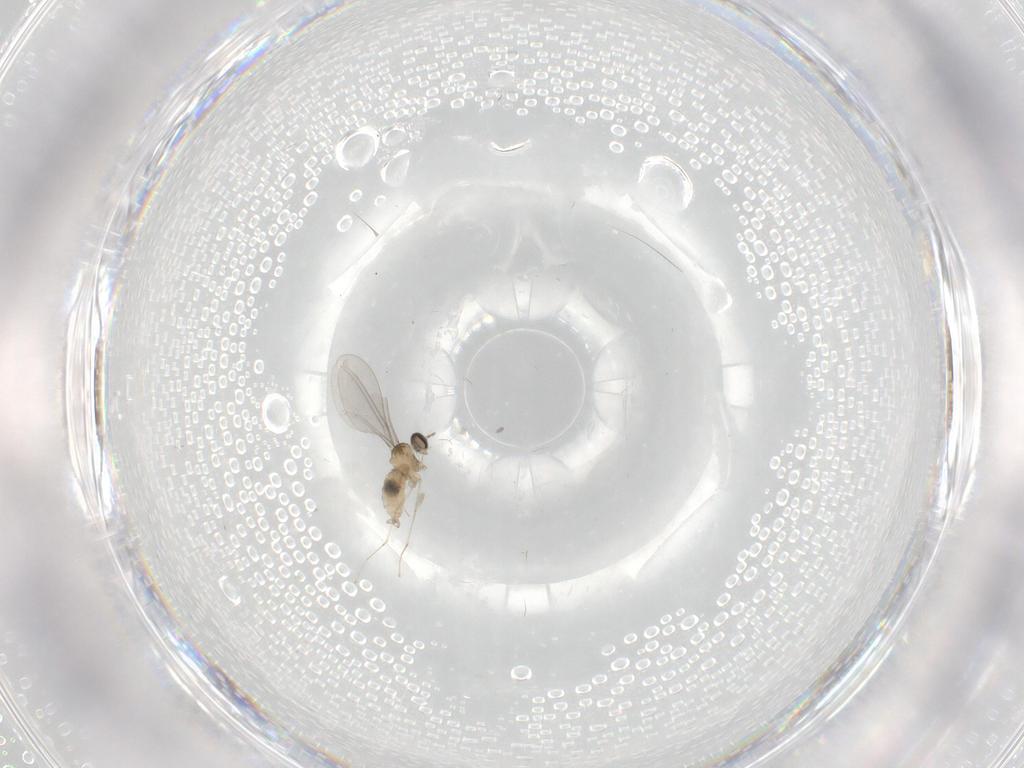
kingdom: Animalia
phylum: Arthropoda
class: Insecta
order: Diptera
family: Cecidomyiidae
